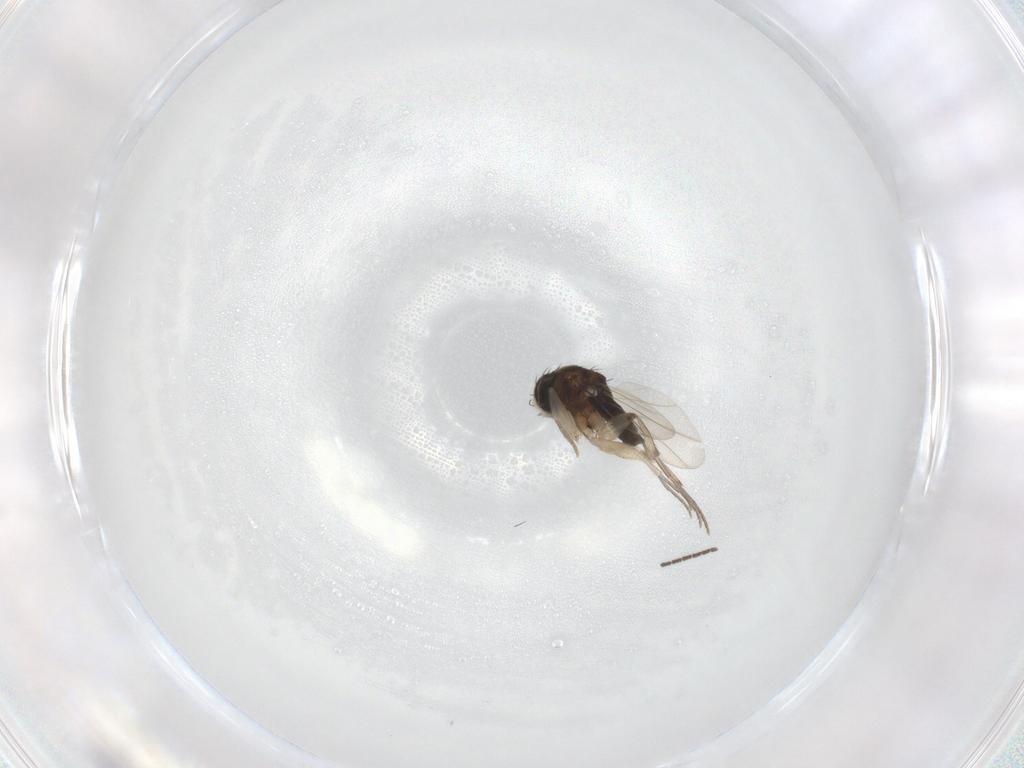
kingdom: Animalia
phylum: Arthropoda
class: Insecta
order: Diptera
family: Phoridae
